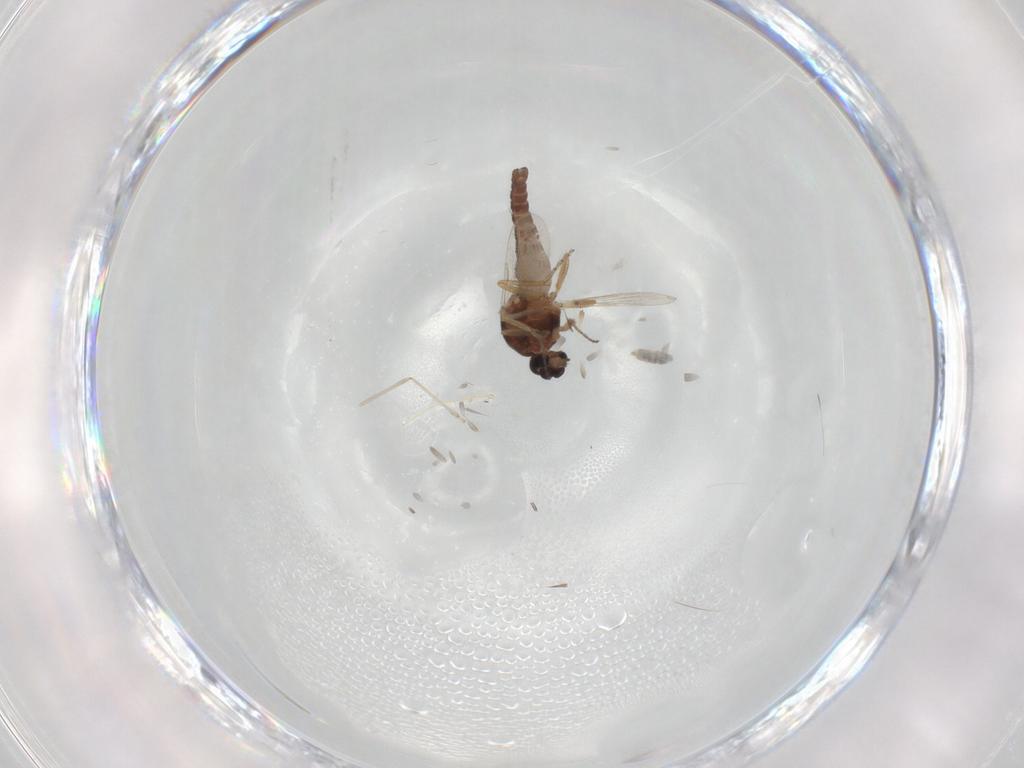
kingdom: Animalia
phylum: Arthropoda
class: Insecta
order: Diptera
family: Ceratopogonidae
